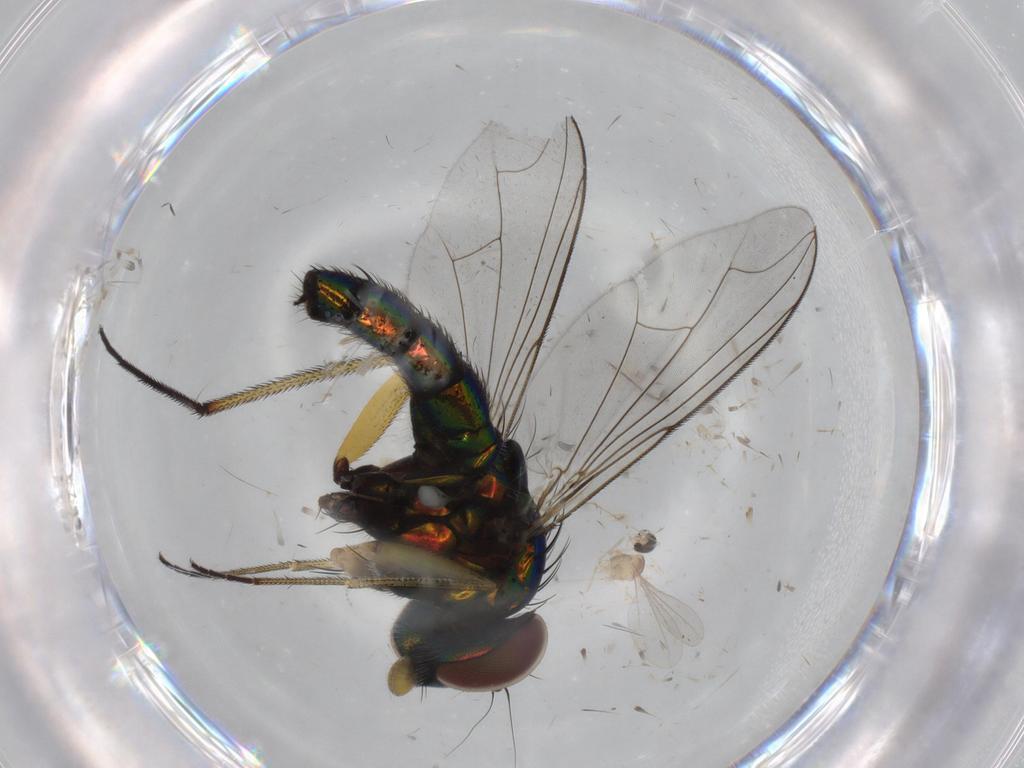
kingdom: Animalia
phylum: Arthropoda
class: Insecta
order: Diptera
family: Dolichopodidae
